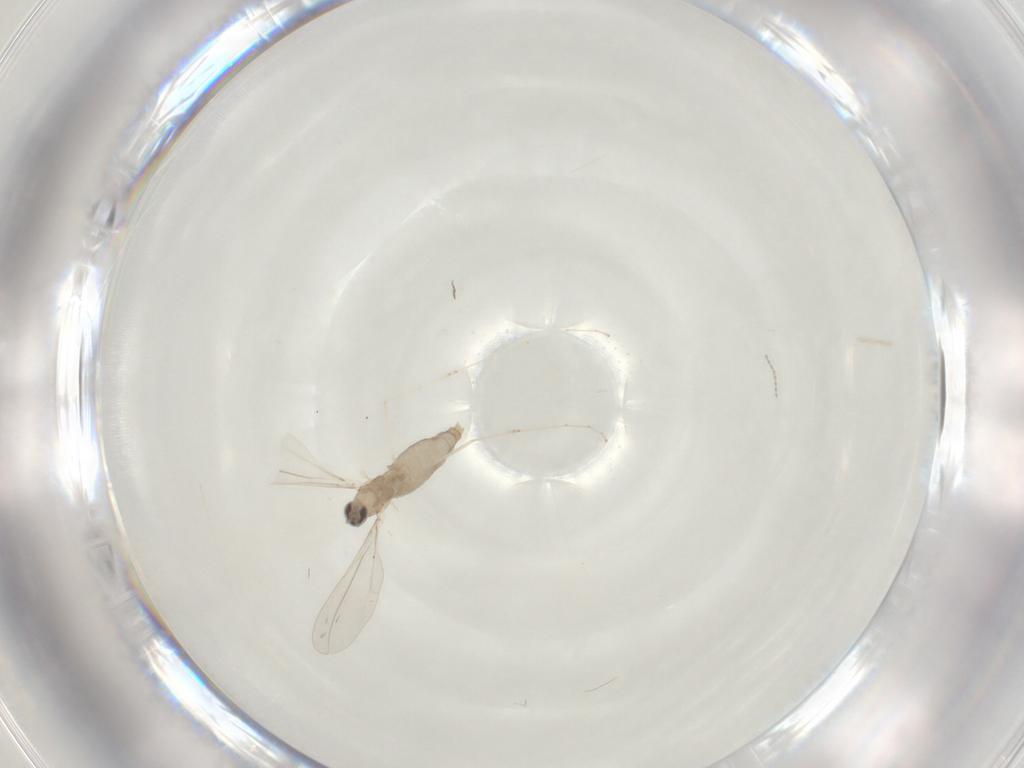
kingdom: Animalia
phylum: Arthropoda
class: Insecta
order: Diptera
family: Cecidomyiidae
